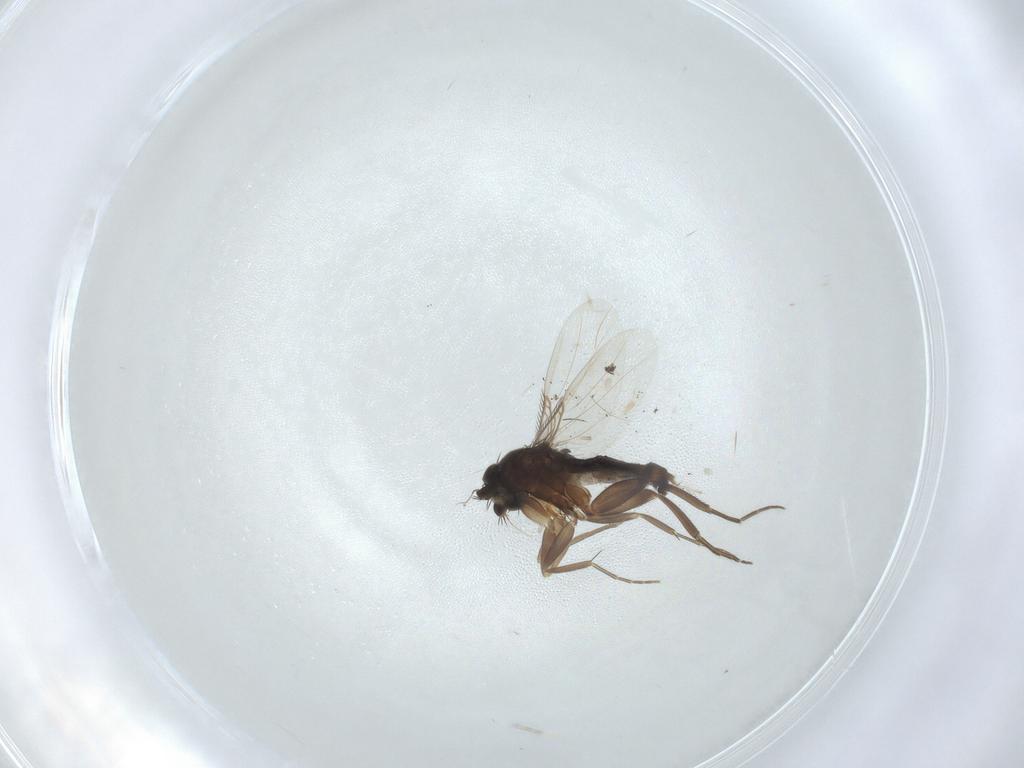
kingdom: Animalia
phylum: Arthropoda
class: Insecta
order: Diptera
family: Phoridae
